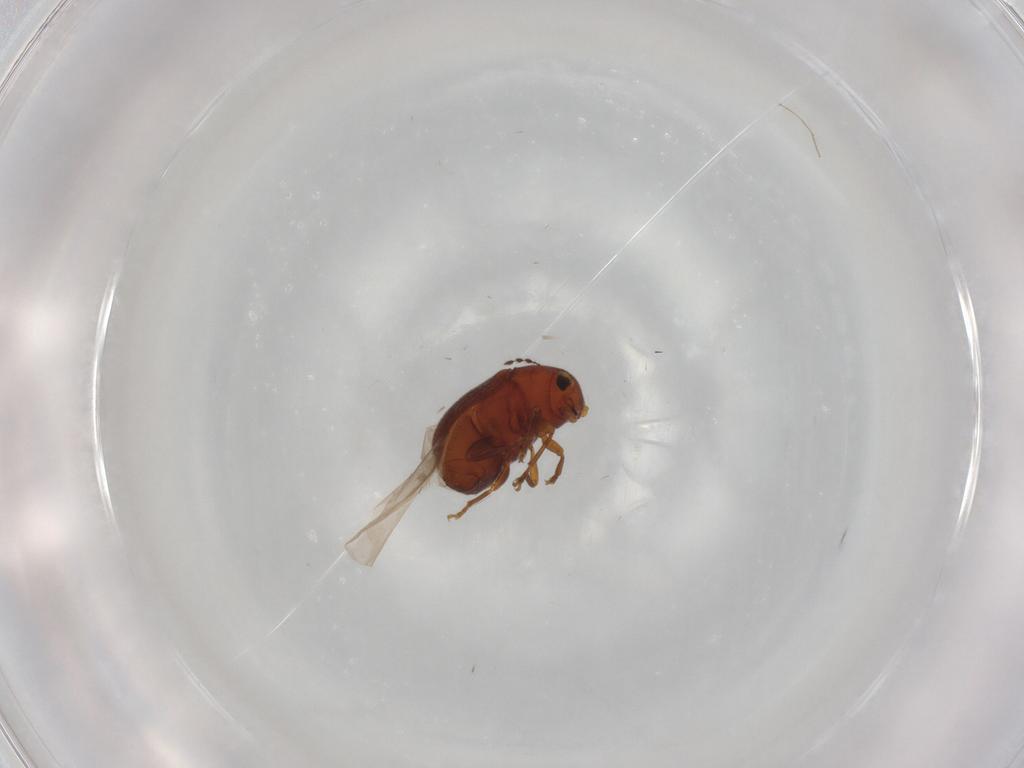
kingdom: Animalia
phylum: Arthropoda
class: Insecta
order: Coleoptera
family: Anthribidae
